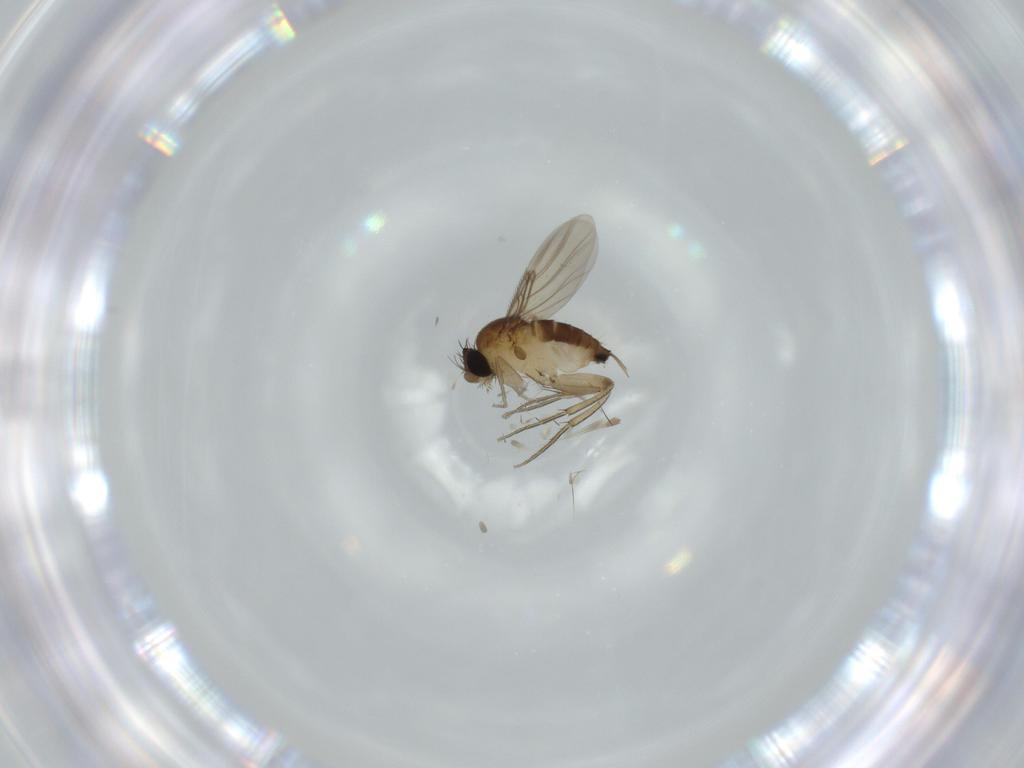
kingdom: Animalia
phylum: Arthropoda
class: Insecta
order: Diptera
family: Phoridae
